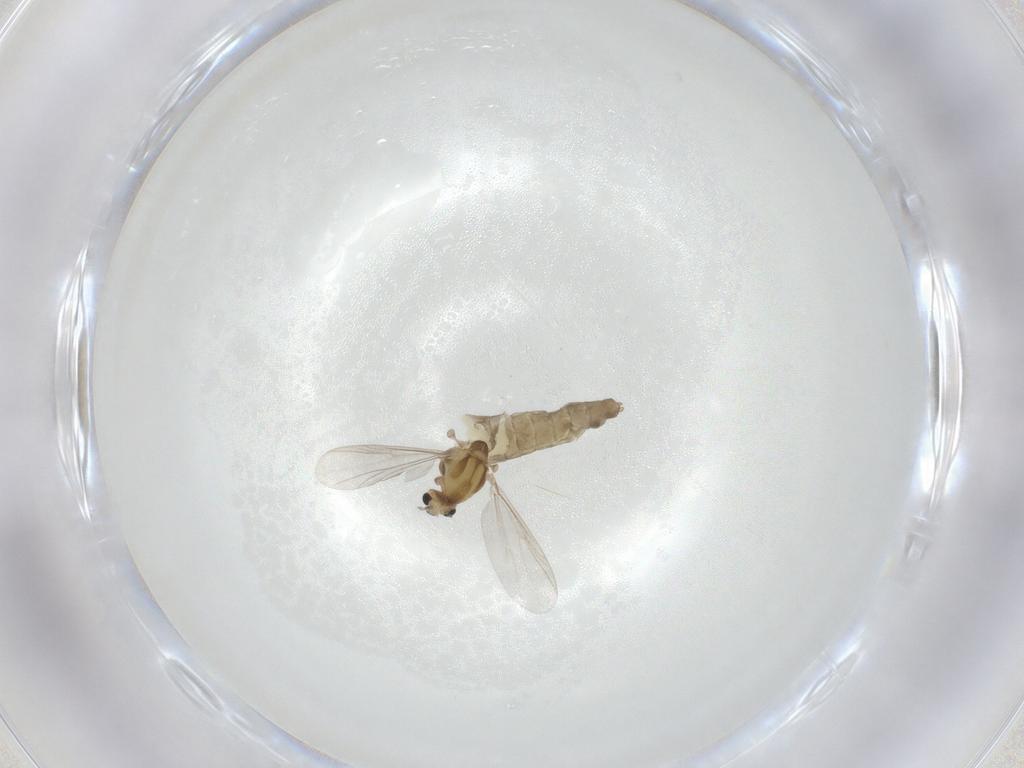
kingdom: Animalia
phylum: Arthropoda
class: Insecta
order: Diptera
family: Chironomidae
